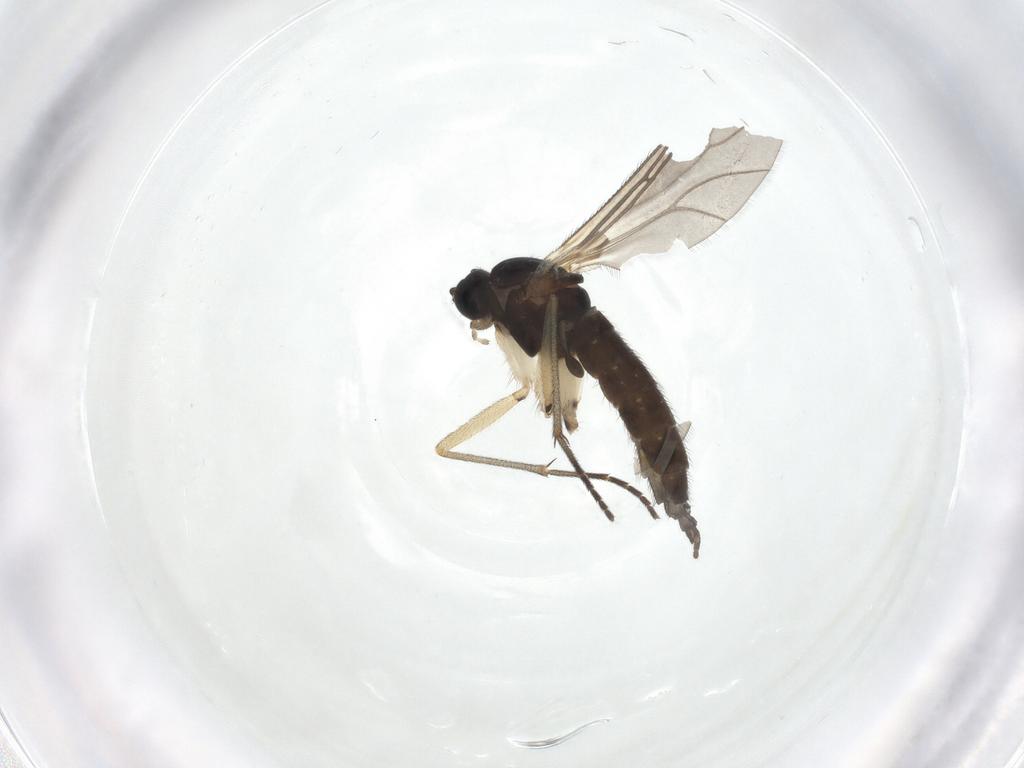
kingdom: Animalia
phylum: Arthropoda
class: Insecta
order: Diptera
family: Sciaridae
